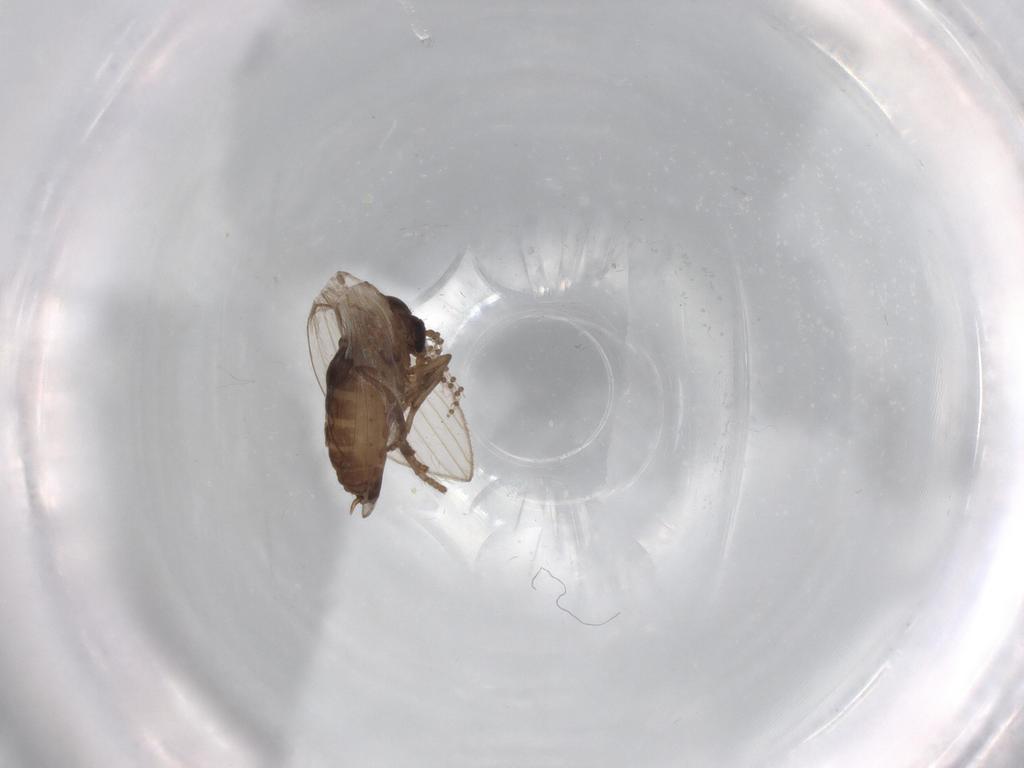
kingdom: Animalia
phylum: Arthropoda
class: Insecta
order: Diptera
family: Psychodidae
